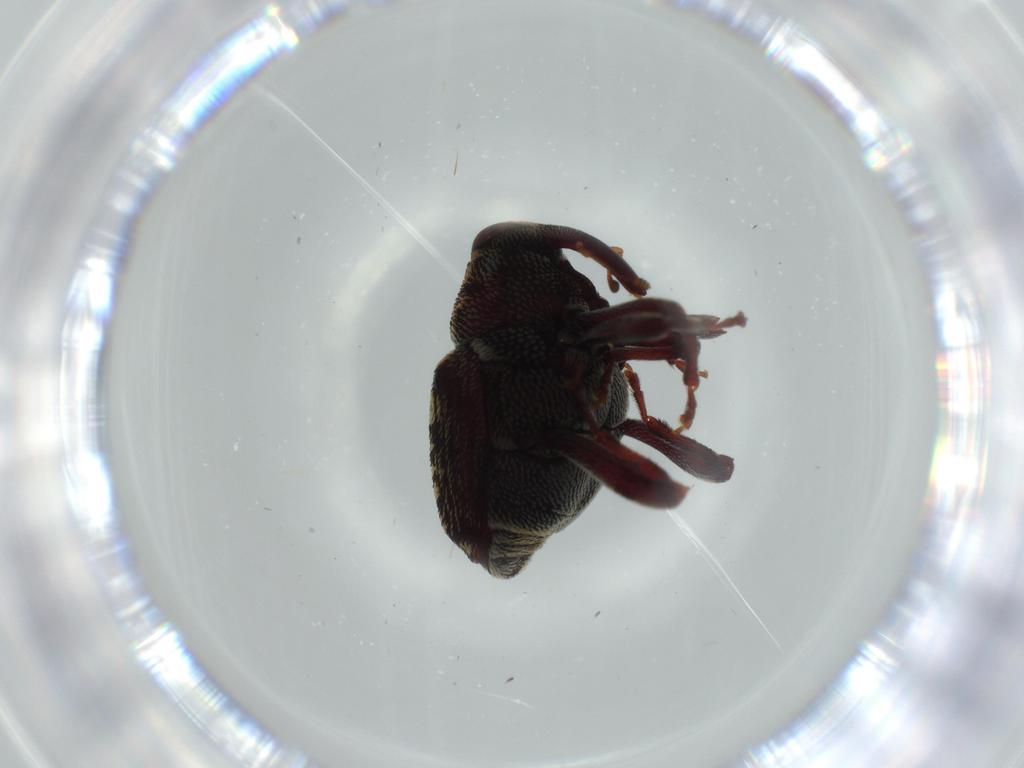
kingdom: Animalia
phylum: Arthropoda
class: Insecta
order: Coleoptera
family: Curculionidae
